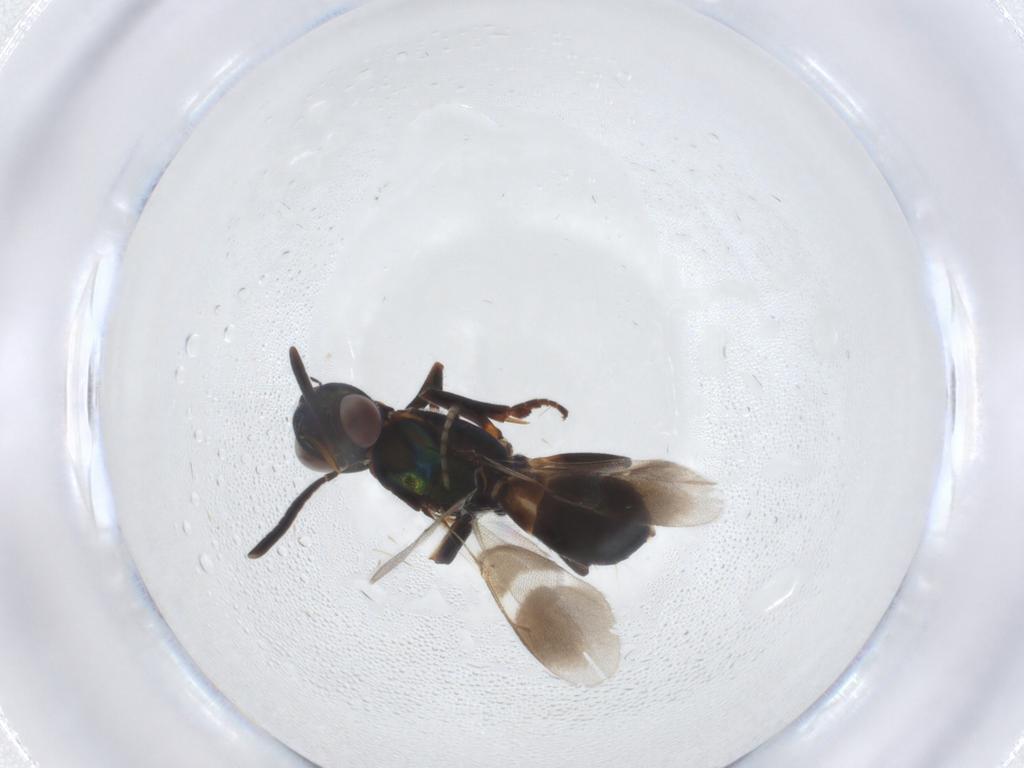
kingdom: Animalia
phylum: Arthropoda
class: Insecta
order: Hymenoptera
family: Ichneumonidae
